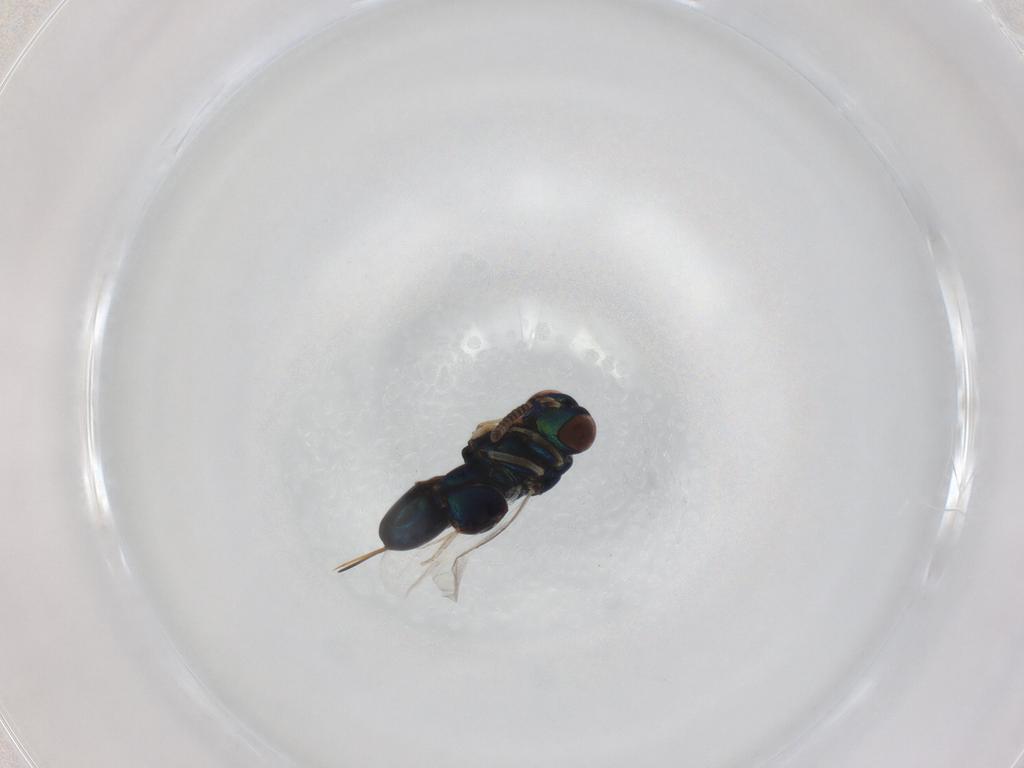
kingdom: Animalia
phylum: Arthropoda
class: Insecta
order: Hymenoptera
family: Torymidae
